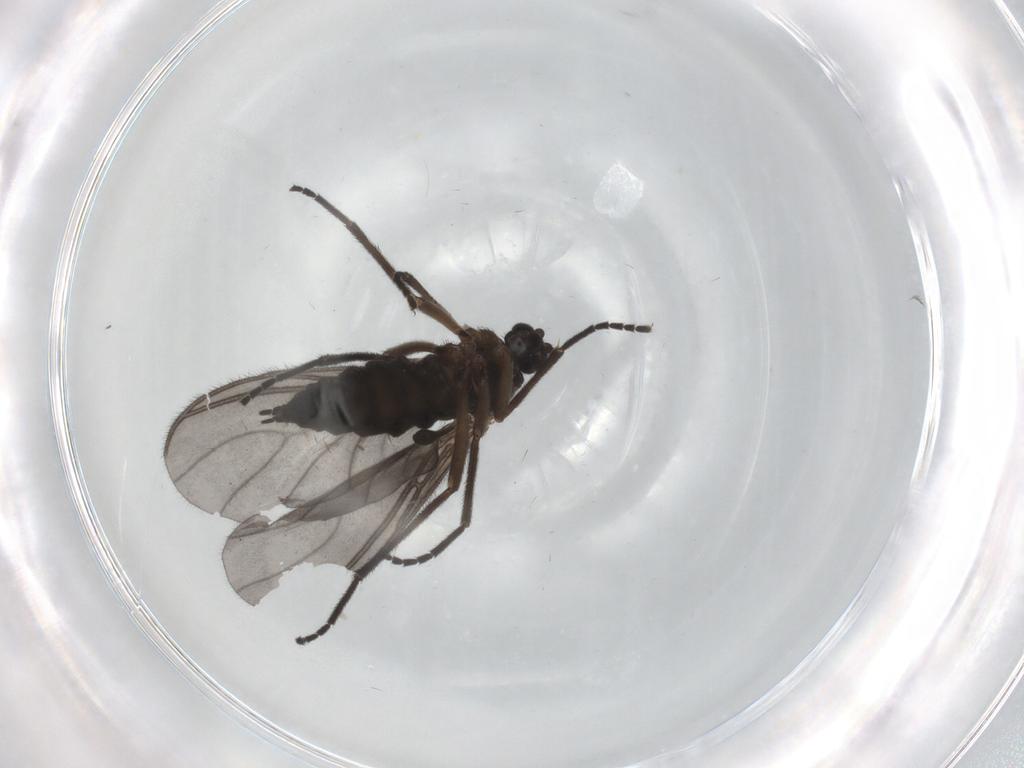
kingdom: Animalia
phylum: Arthropoda
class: Insecta
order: Diptera
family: Sciaridae
